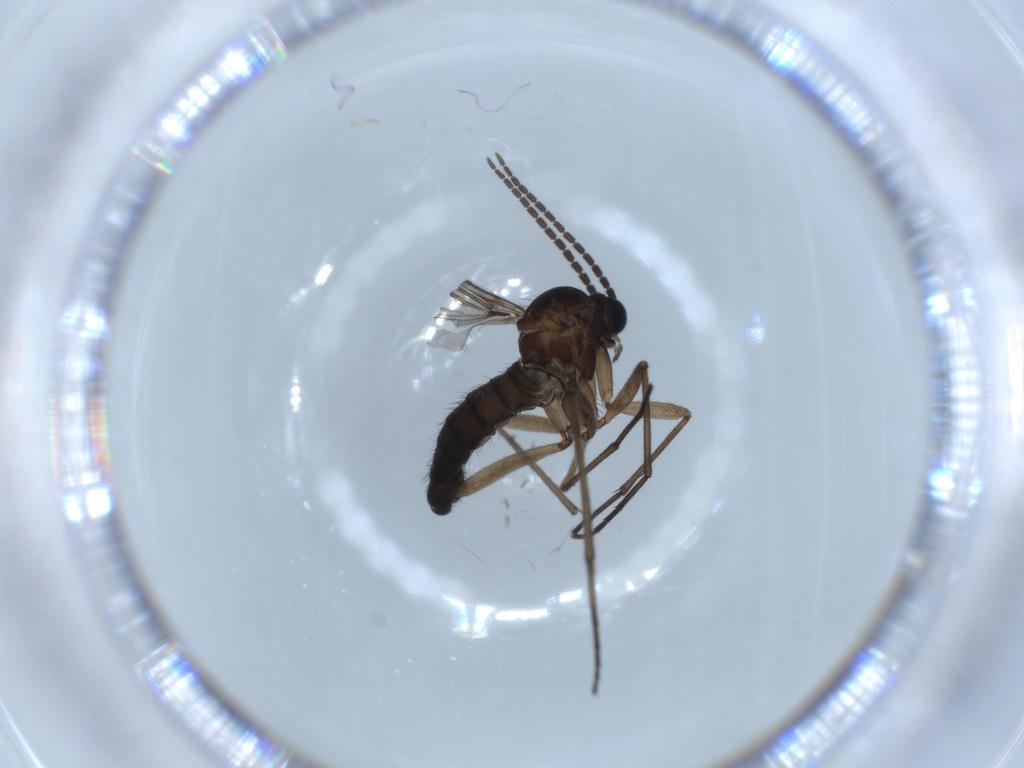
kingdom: Animalia
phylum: Arthropoda
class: Insecta
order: Diptera
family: Sciaridae
